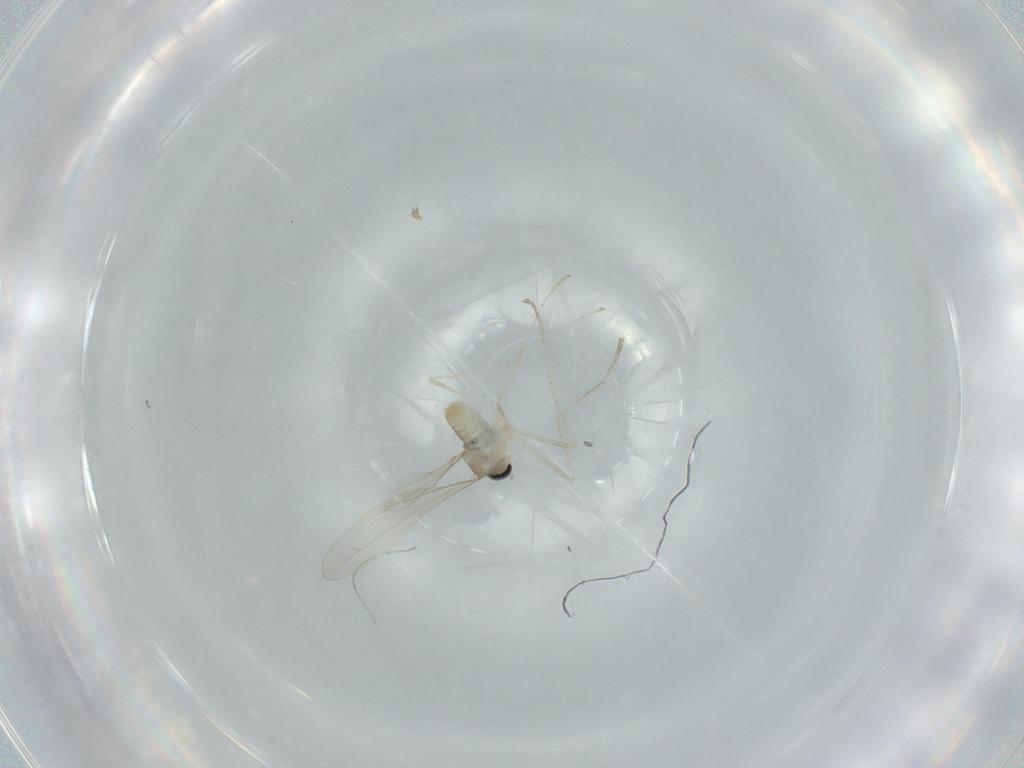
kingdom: Animalia
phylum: Arthropoda
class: Insecta
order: Diptera
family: Cecidomyiidae
